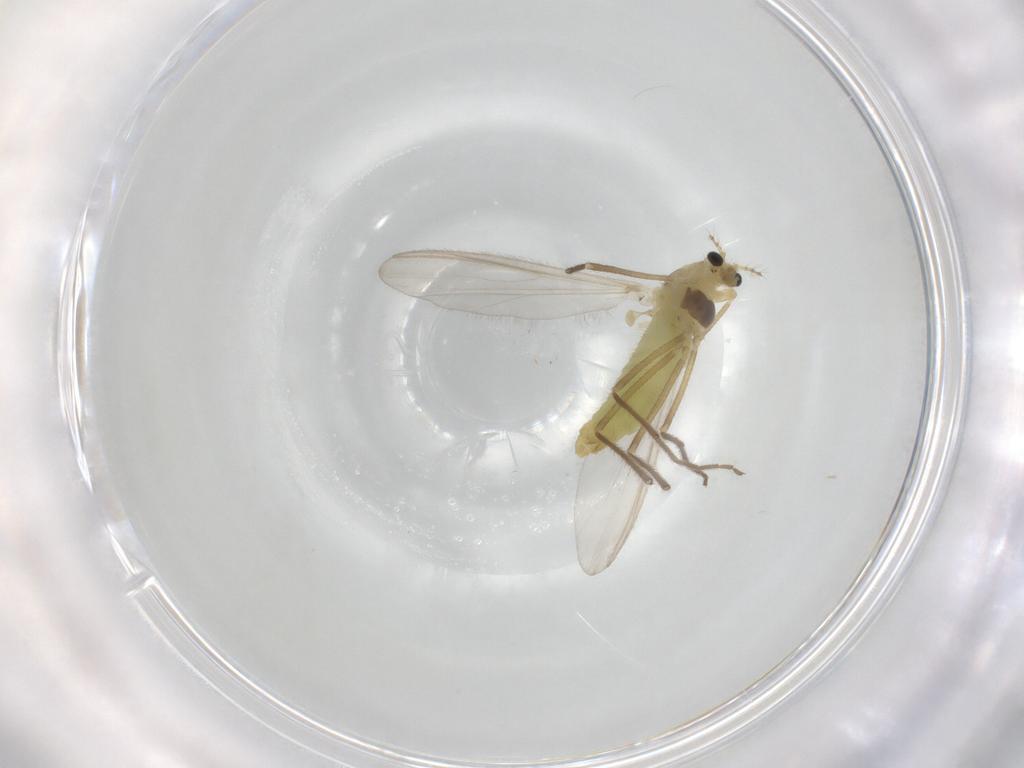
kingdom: Animalia
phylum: Arthropoda
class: Insecta
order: Diptera
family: Chironomidae
